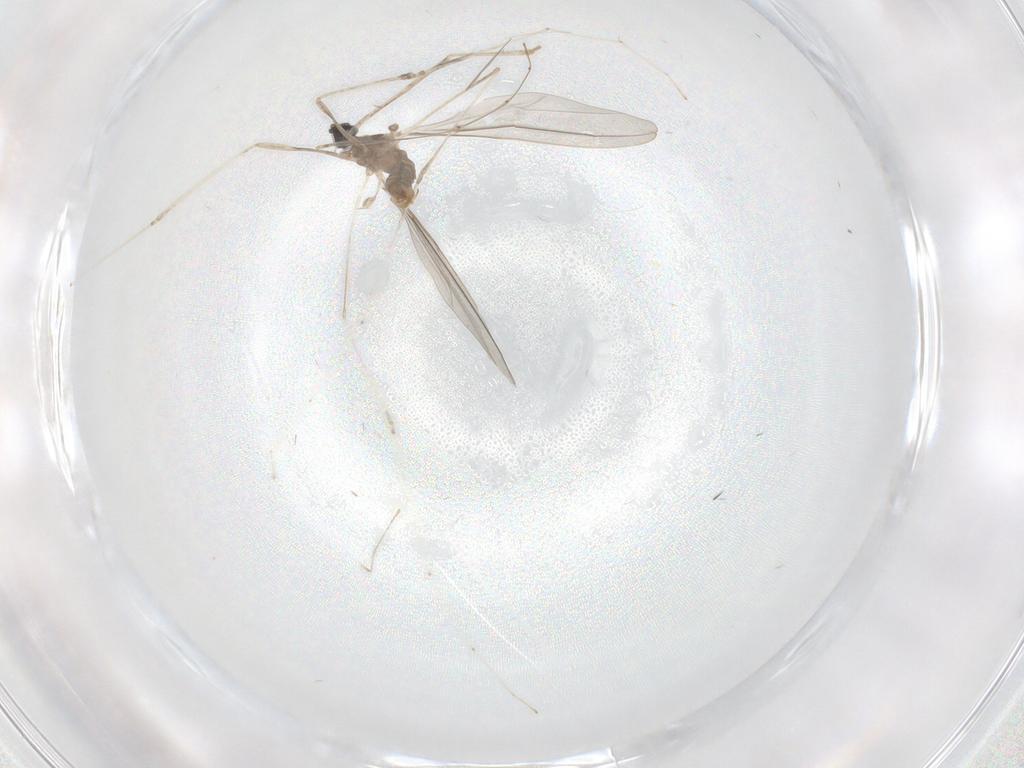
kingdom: Animalia
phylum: Arthropoda
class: Insecta
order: Diptera
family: Cecidomyiidae
